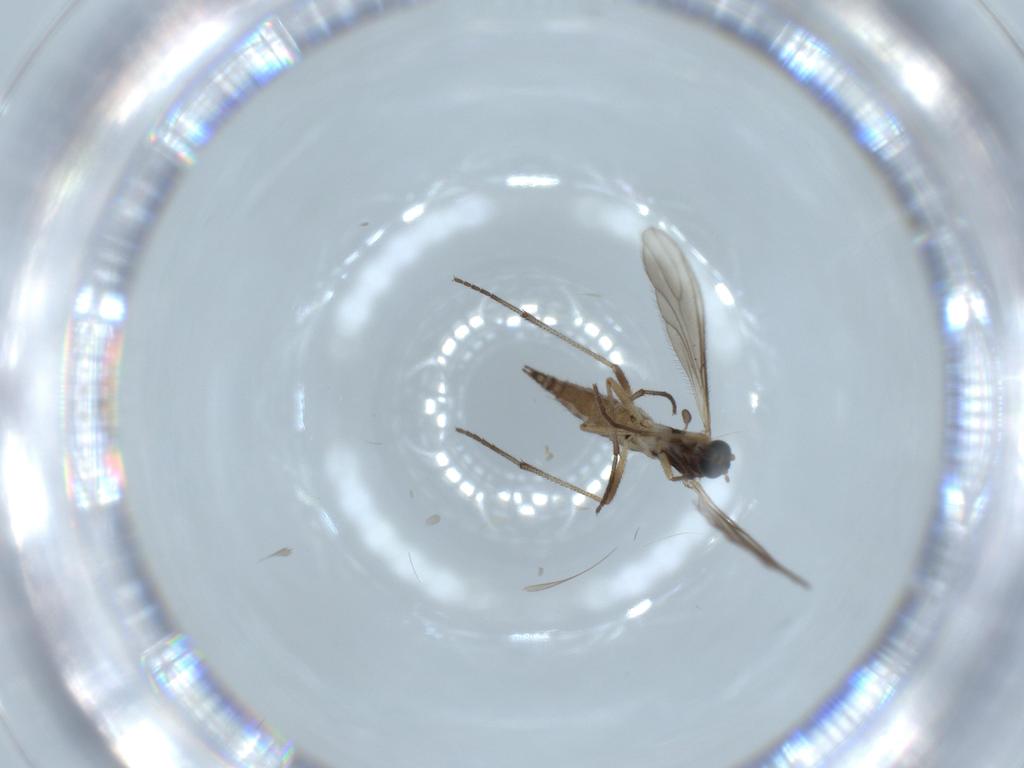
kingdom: Animalia
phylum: Arthropoda
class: Insecta
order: Diptera
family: Sciaridae
